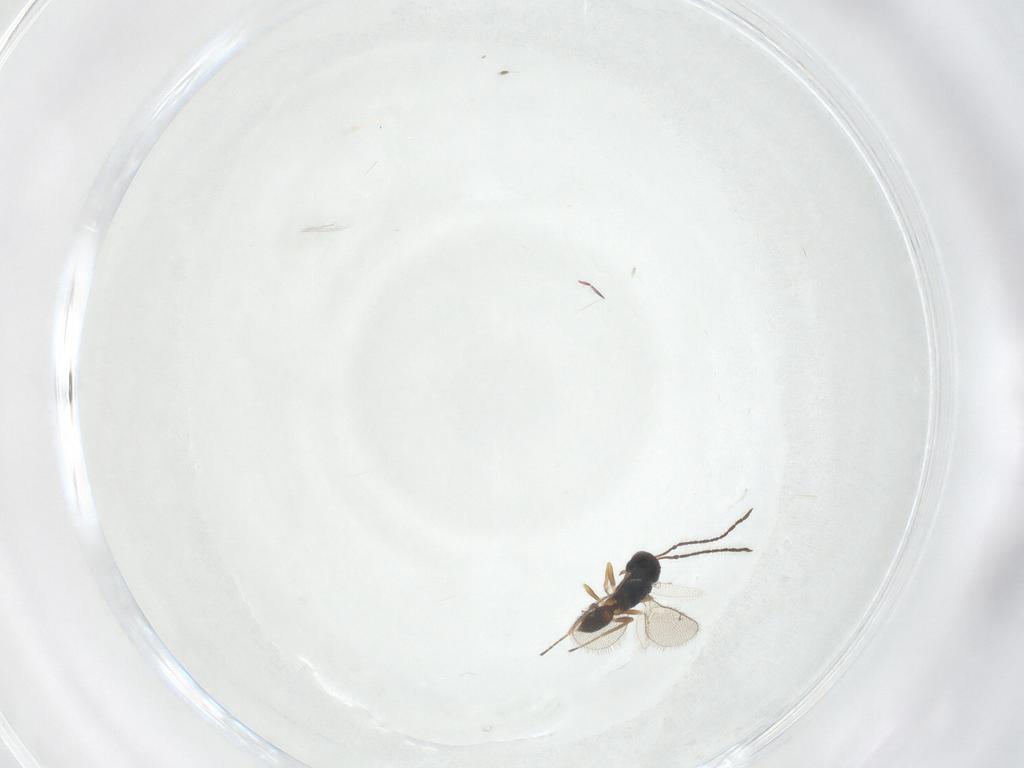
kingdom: Animalia
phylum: Arthropoda
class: Insecta
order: Hymenoptera
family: Pteromalidae
